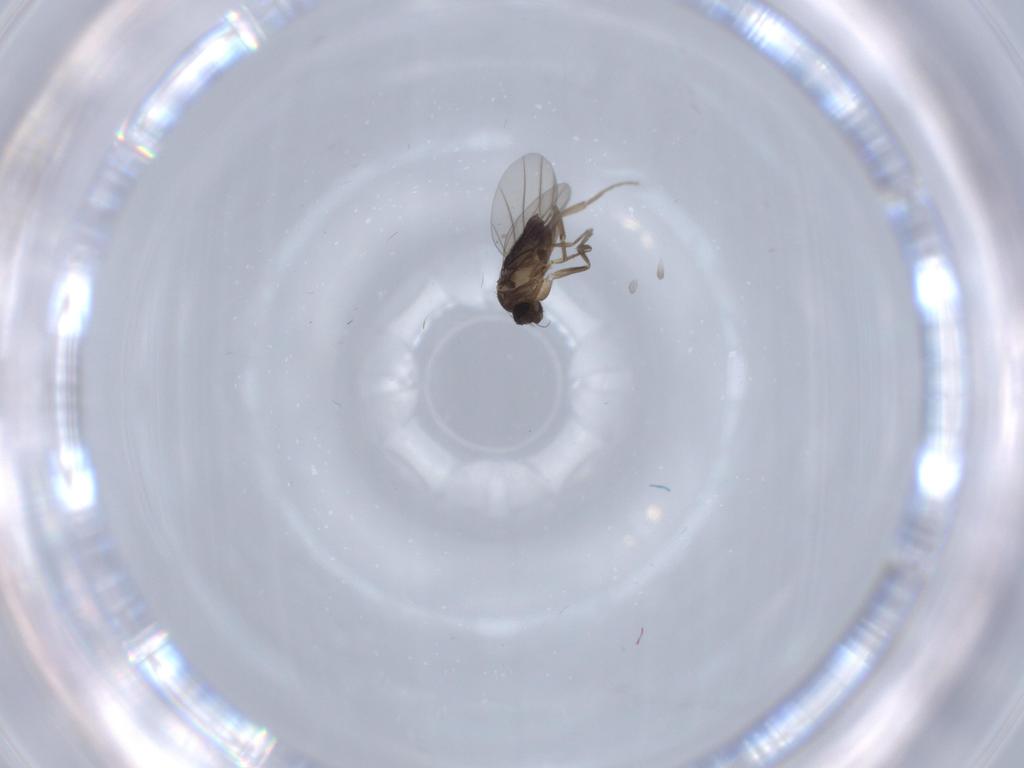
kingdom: Animalia
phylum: Arthropoda
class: Insecta
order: Diptera
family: Phoridae
